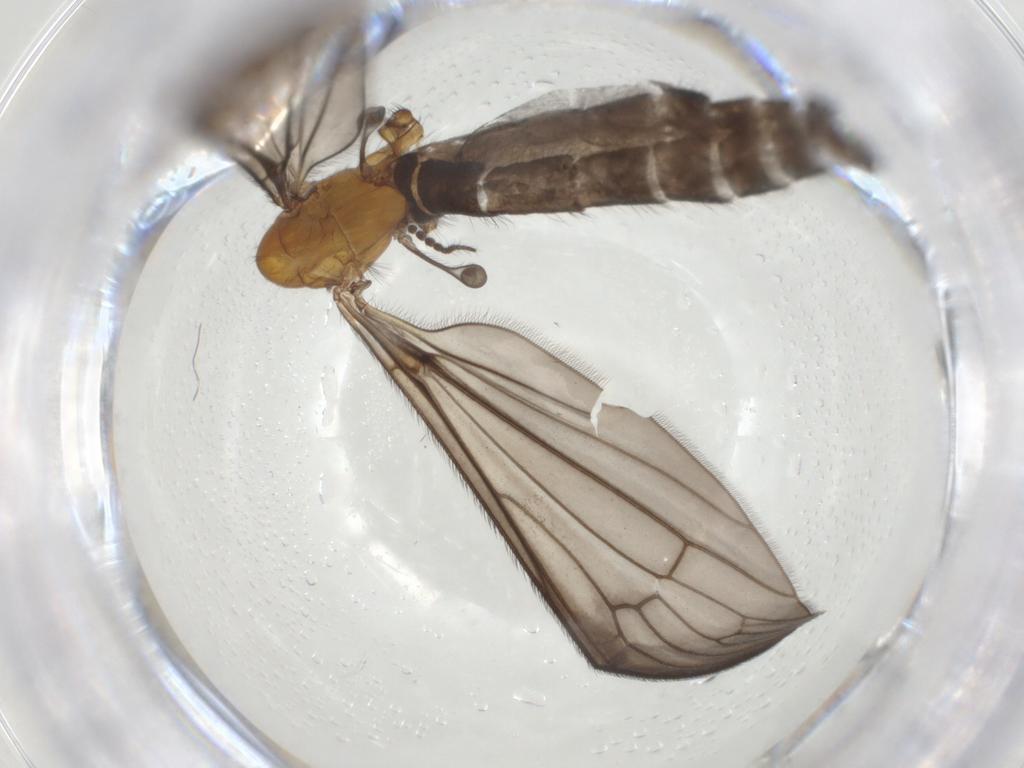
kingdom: Animalia
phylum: Arthropoda
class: Insecta
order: Diptera
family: Limoniidae
